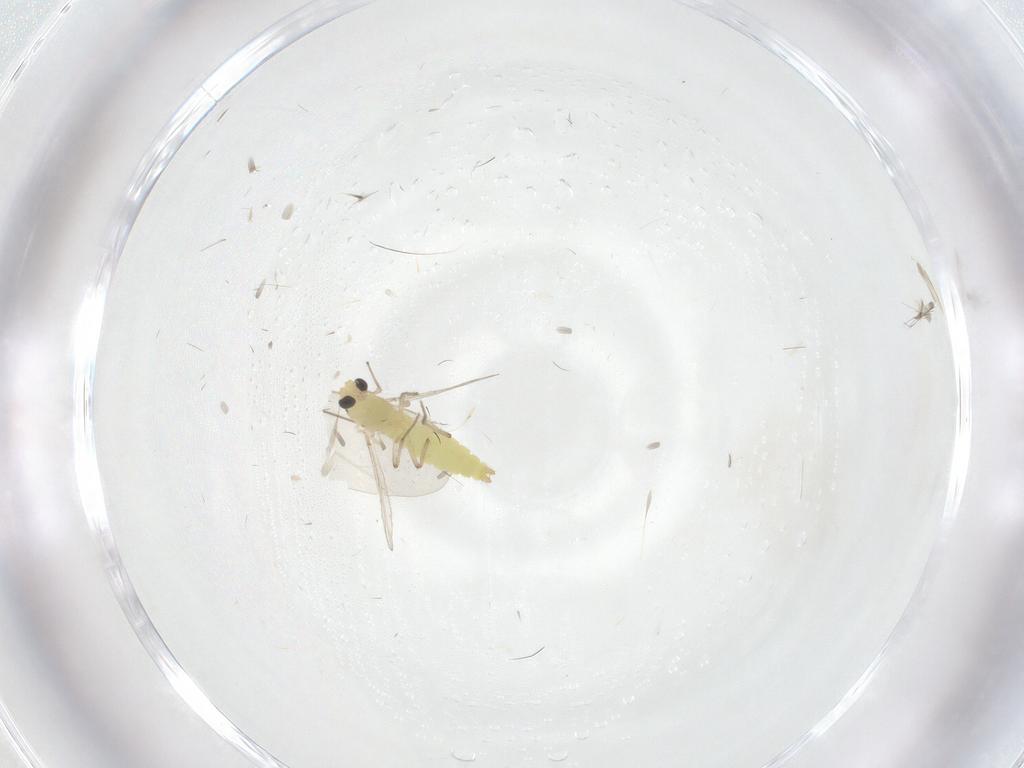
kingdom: Animalia
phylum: Arthropoda
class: Insecta
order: Diptera
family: Chironomidae
